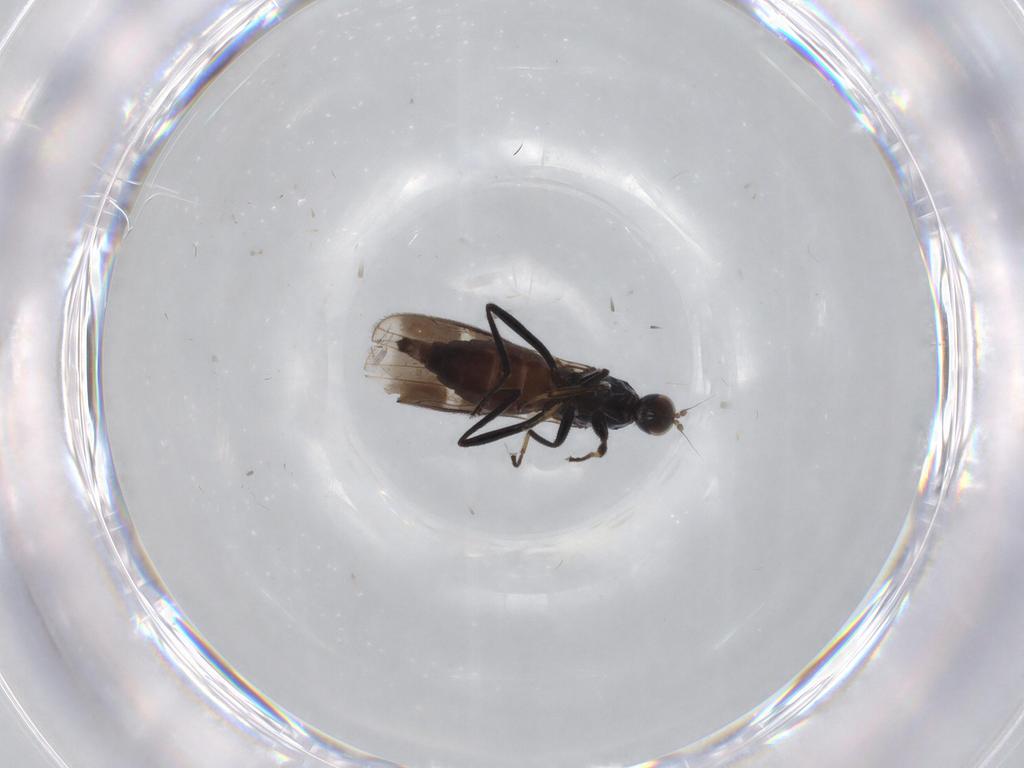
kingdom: Animalia
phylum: Arthropoda
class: Insecta
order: Diptera
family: Hybotidae
